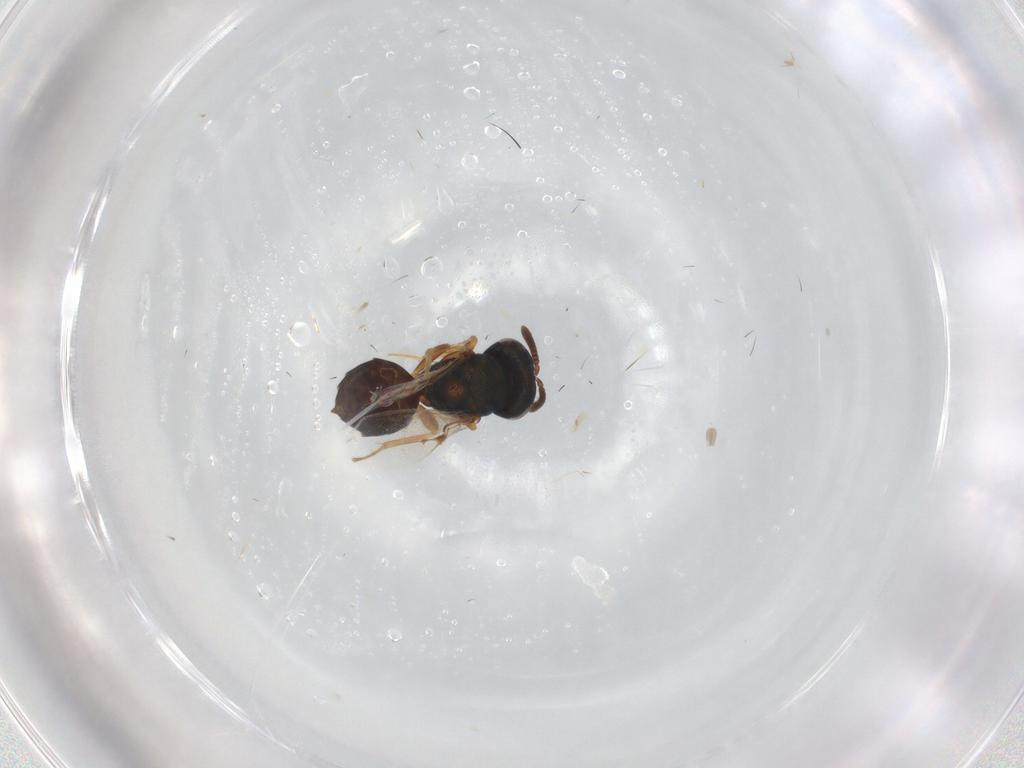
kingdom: Animalia
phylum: Arthropoda
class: Insecta
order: Hymenoptera
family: Pteromalidae
